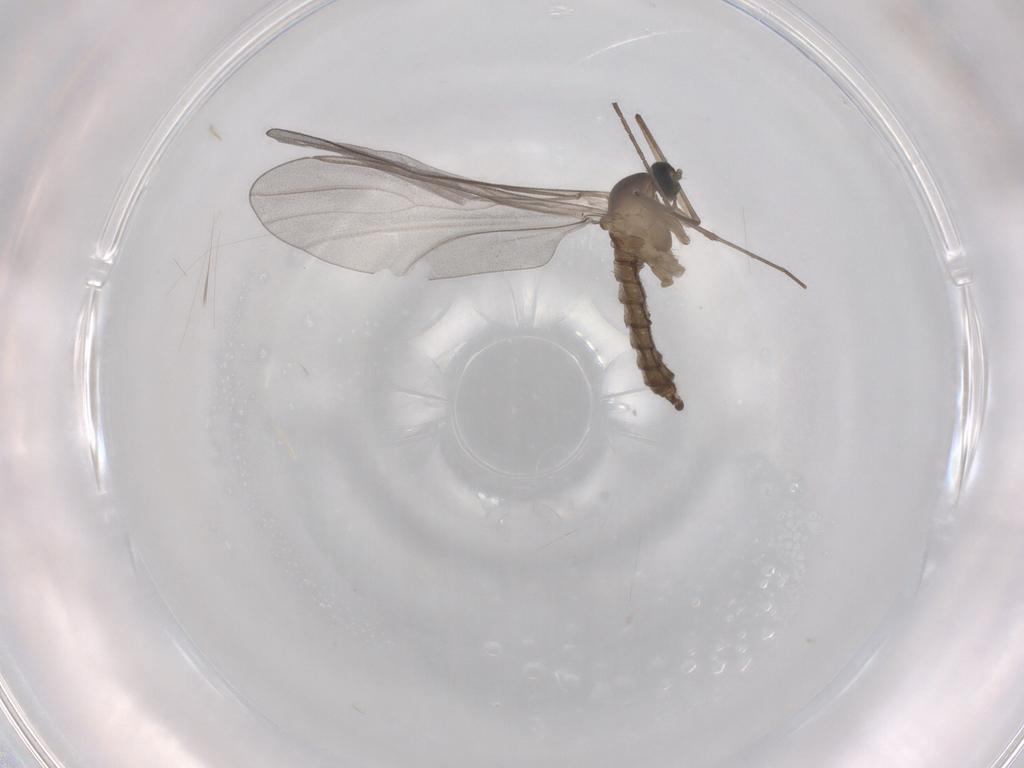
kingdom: Animalia
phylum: Arthropoda
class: Insecta
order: Diptera
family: Cecidomyiidae
